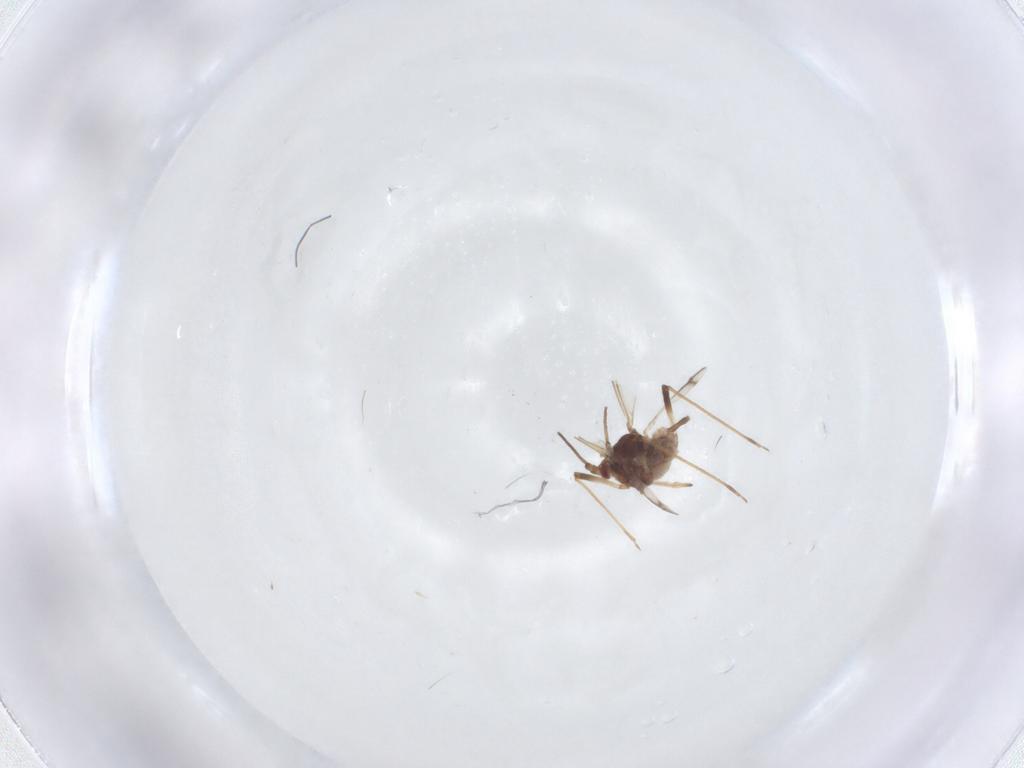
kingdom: Animalia
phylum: Arthropoda
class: Insecta
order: Hemiptera
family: Aphididae
